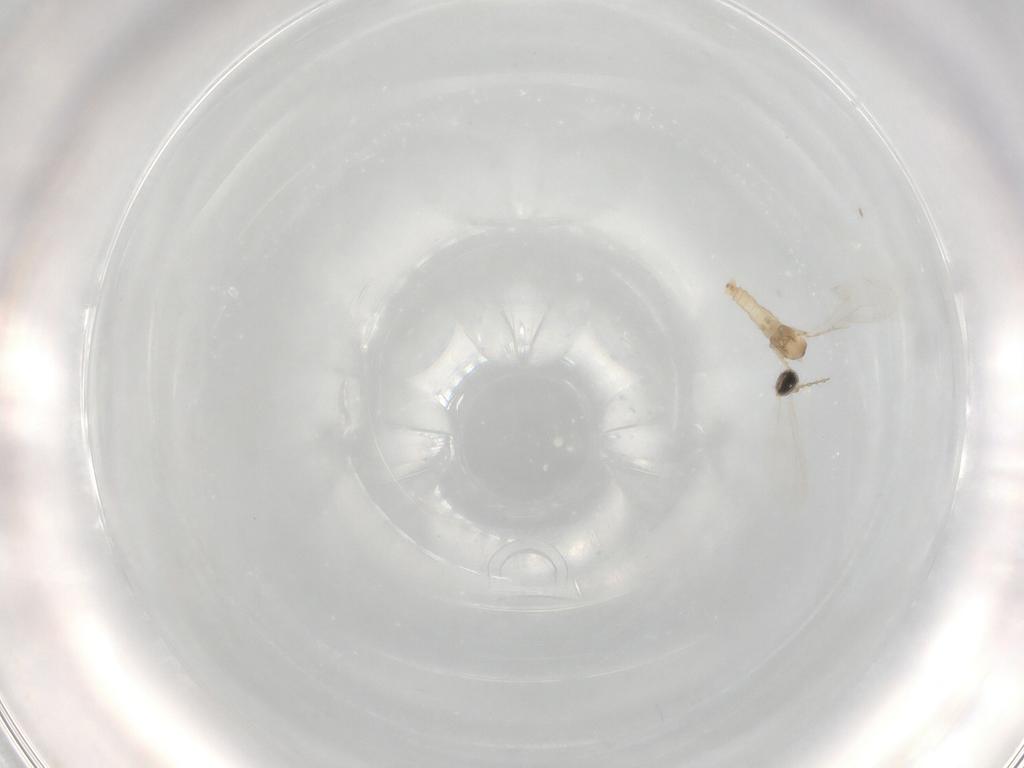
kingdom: Animalia
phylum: Arthropoda
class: Insecta
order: Diptera
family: Cecidomyiidae
